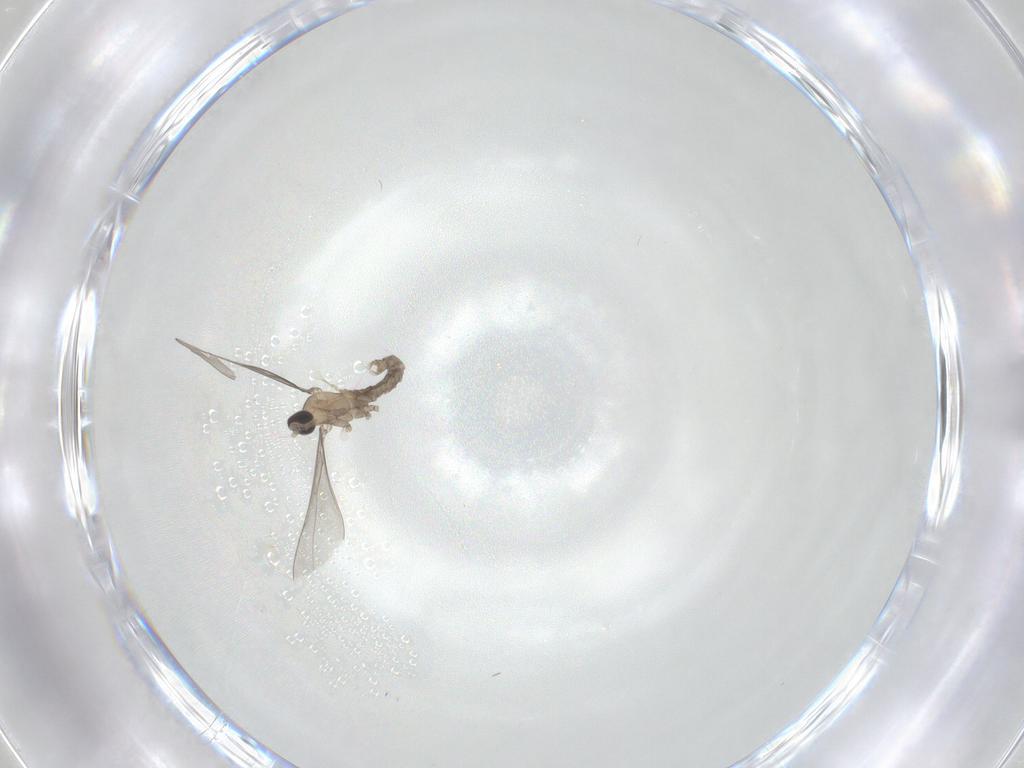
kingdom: Animalia
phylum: Arthropoda
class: Insecta
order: Diptera
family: Cecidomyiidae
